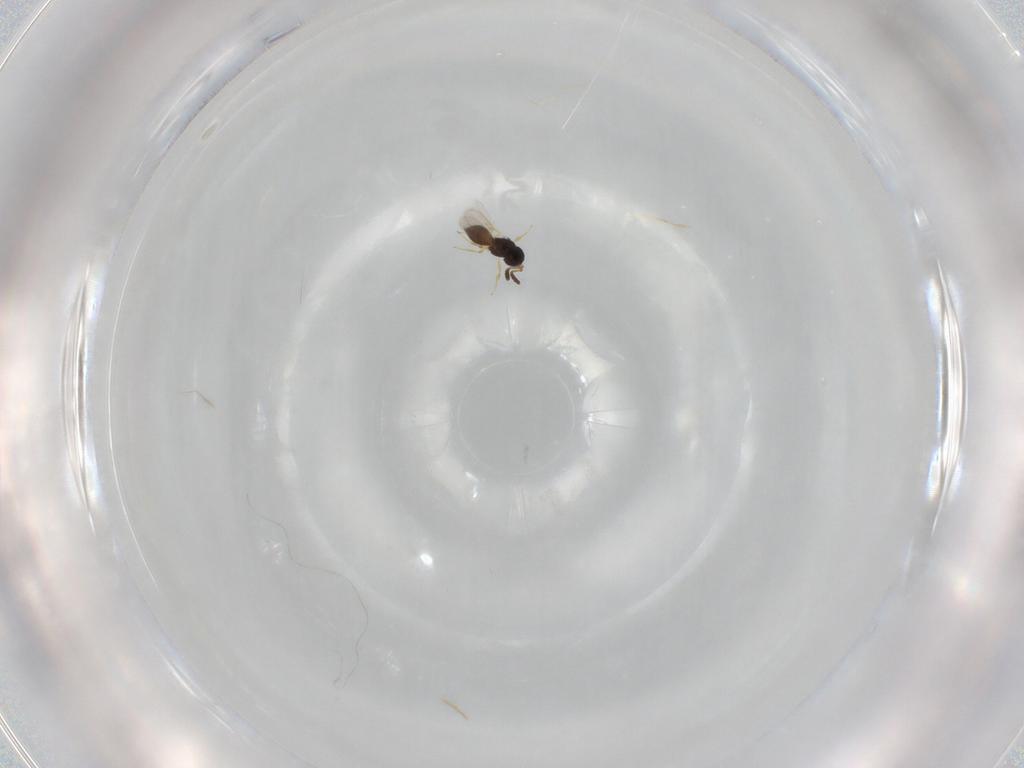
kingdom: Animalia
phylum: Arthropoda
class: Insecta
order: Hymenoptera
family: Scelionidae
